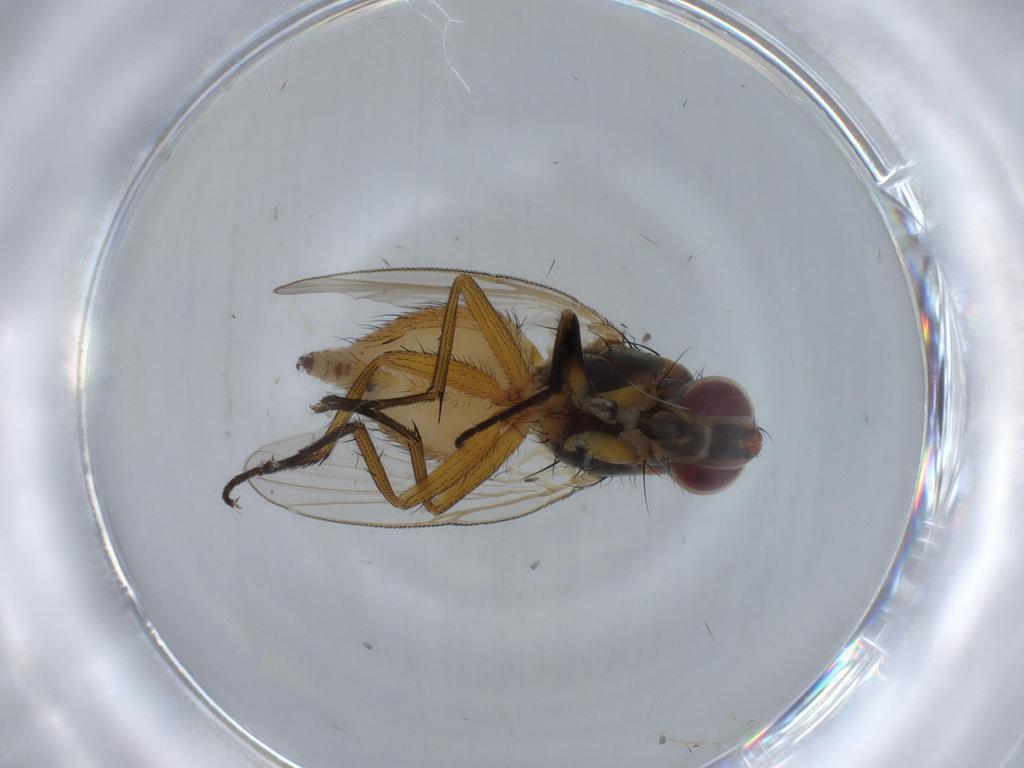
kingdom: Animalia
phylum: Arthropoda
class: Insecta
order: Diptera
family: Muscidae
